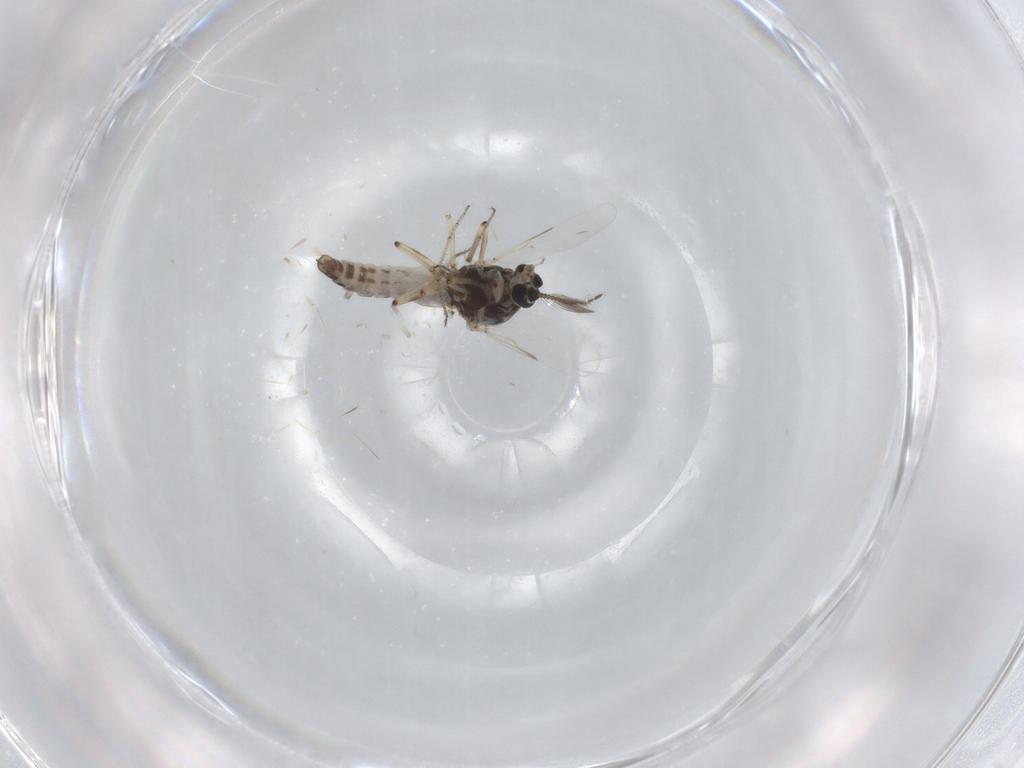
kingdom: Animalia
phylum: Arthropoda
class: Insecta
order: Diptera
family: Ceratopogonidae
